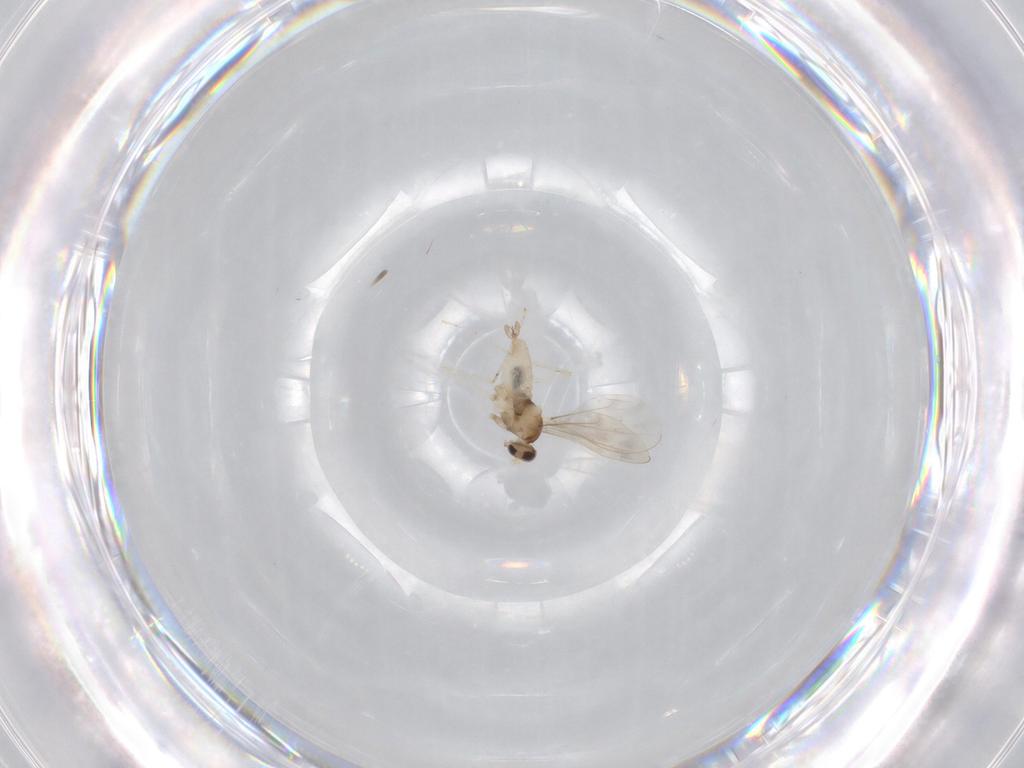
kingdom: Animalia
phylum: Arthropoda
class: Insecta
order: Diptera
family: Cecidomyiidae
